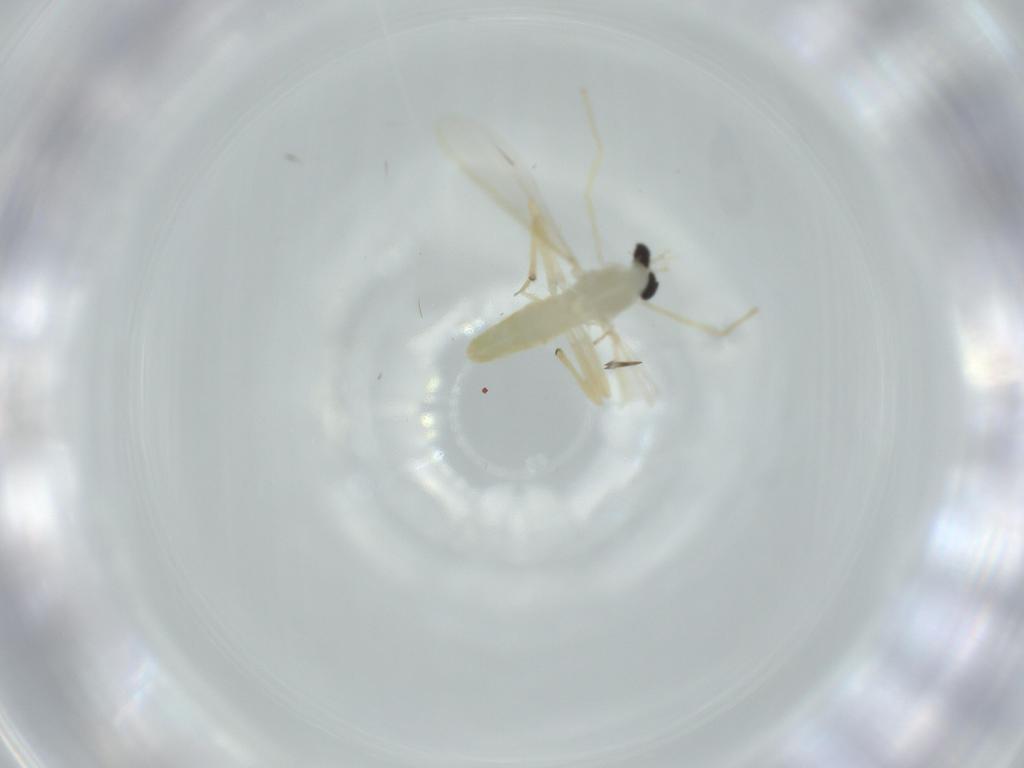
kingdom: Animalia
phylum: Arthropoda
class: Insecta
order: Diptera
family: Chironomidae
